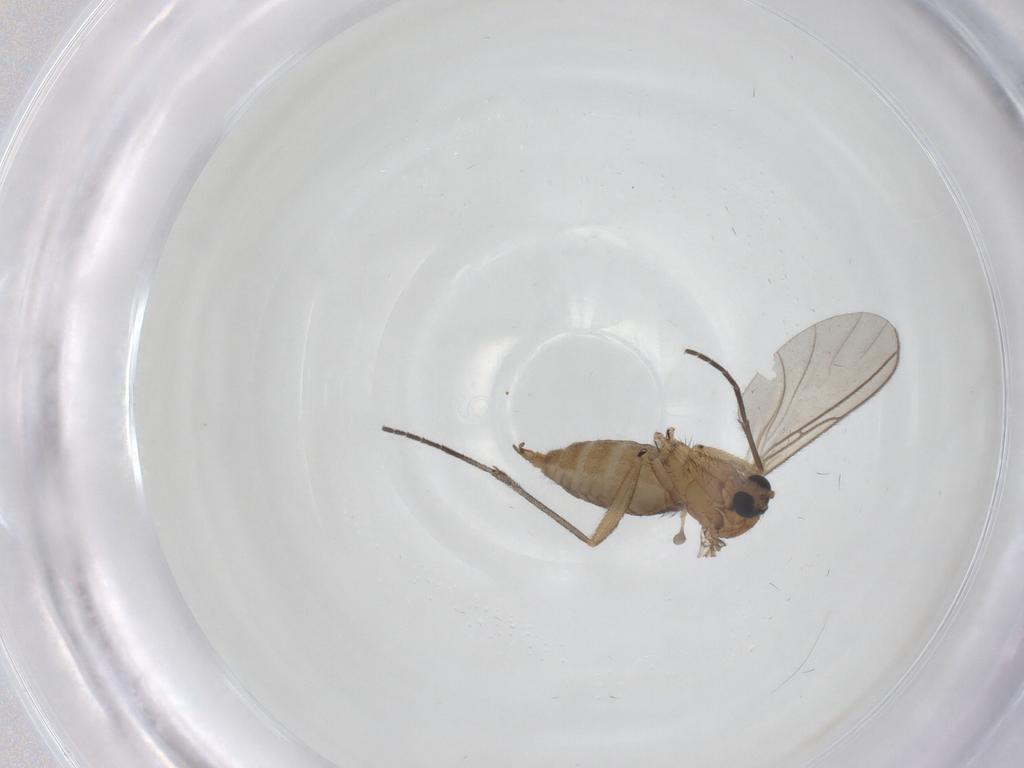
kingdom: Animalia
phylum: Arthropoda
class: Insecta
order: Diptera
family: Sciaridae
